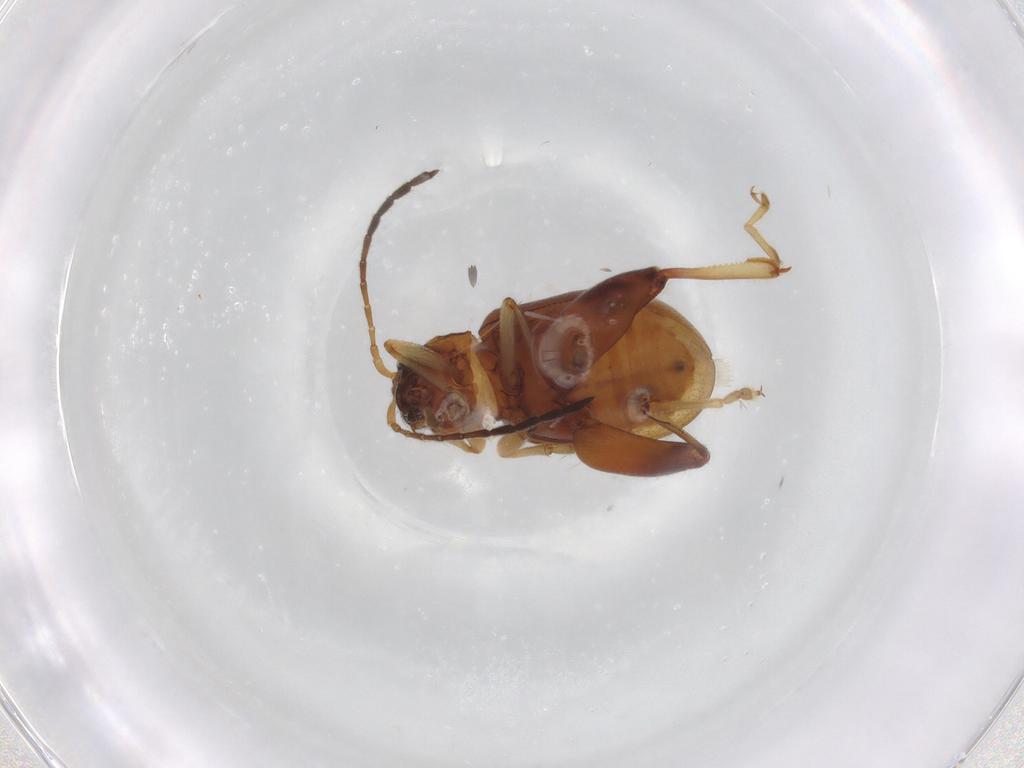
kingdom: Animalia
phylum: Arthropoda
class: Insecta
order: Coleoptera
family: Chrysomelidae
